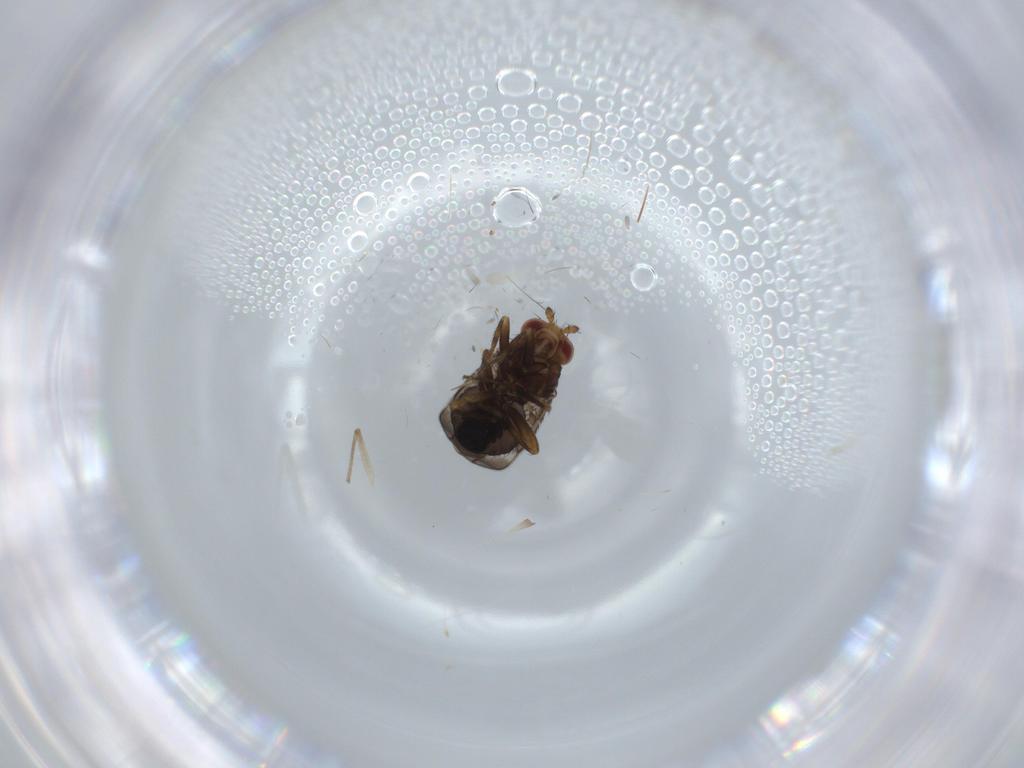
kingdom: Animalia
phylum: Arthropoda
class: Insecta
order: Diptera
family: Sphaeroceridae
